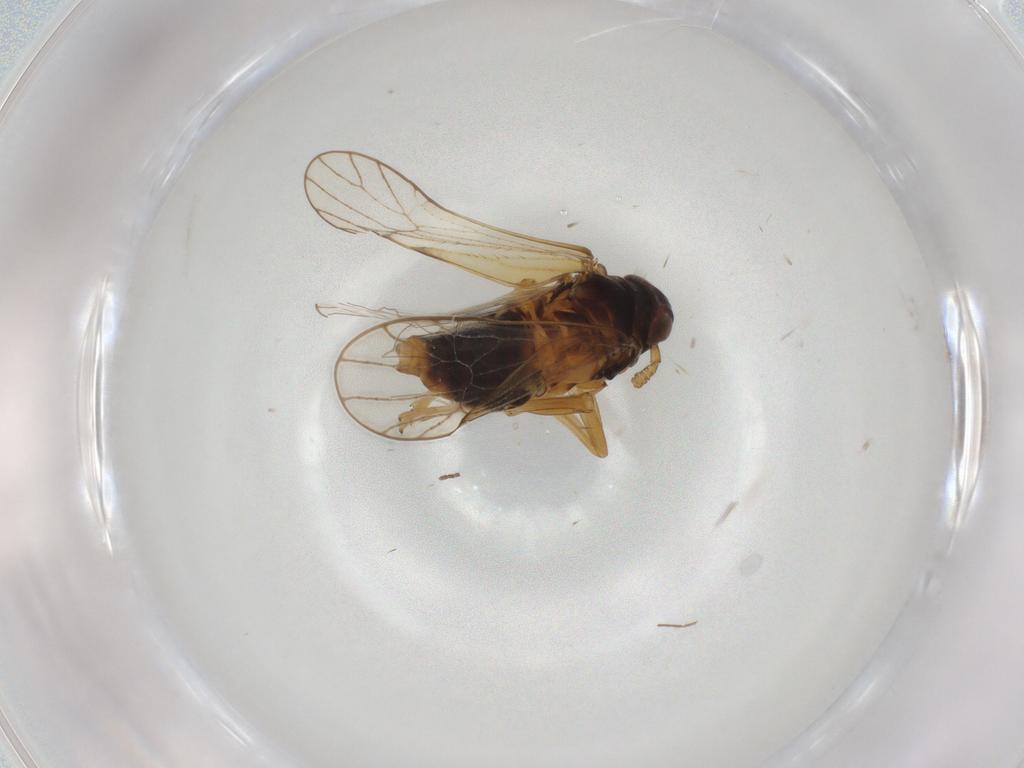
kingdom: Animalia
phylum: Arthropoda
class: Insecta
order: Hemiptera
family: Delphacidae
